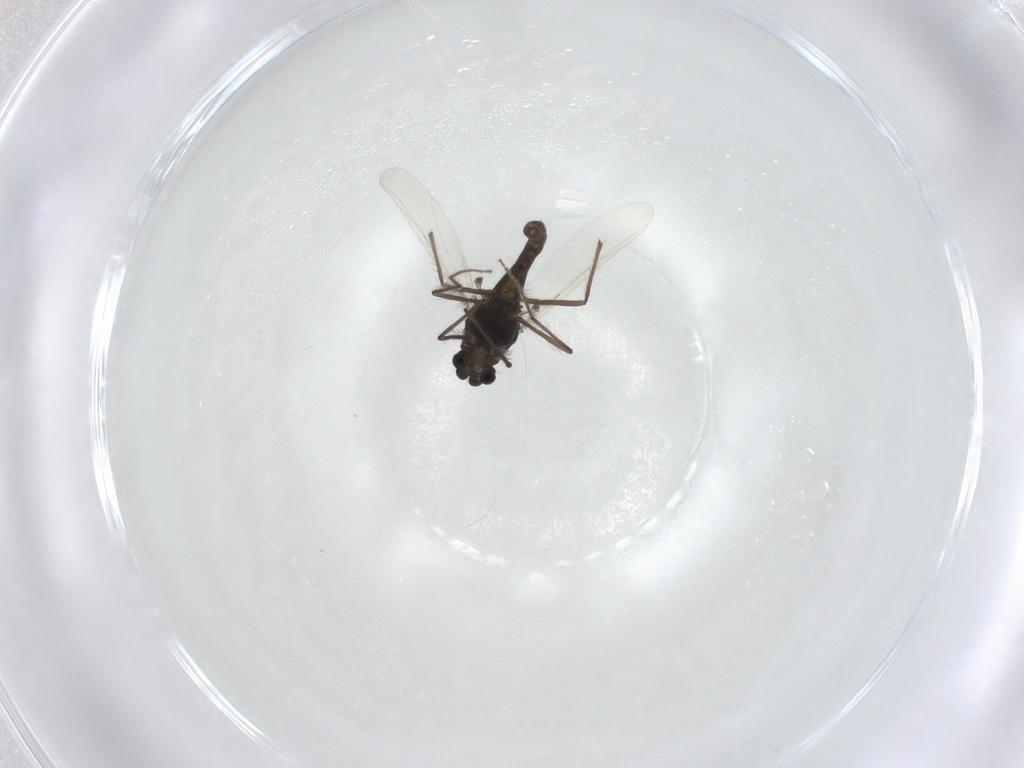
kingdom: Animalia
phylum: Arthropoda
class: Insecta
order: Diptera
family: Chironomidae
